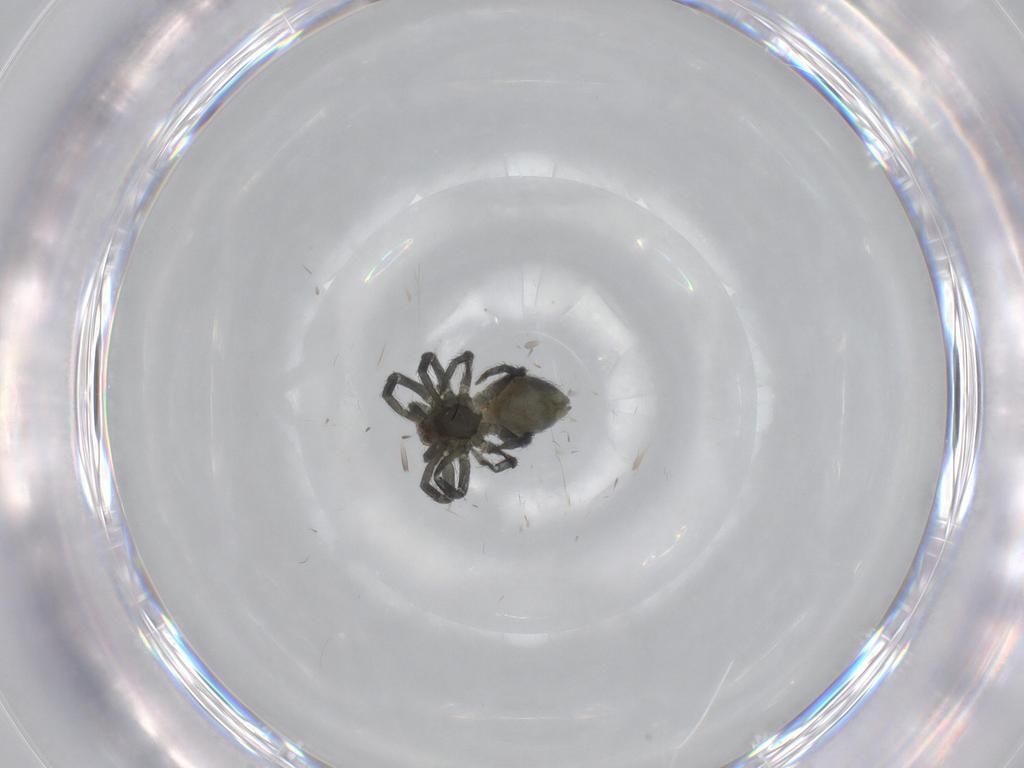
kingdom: Animalia
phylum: Arthropoda
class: Arachnida
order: Araneae
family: Dictynidae
